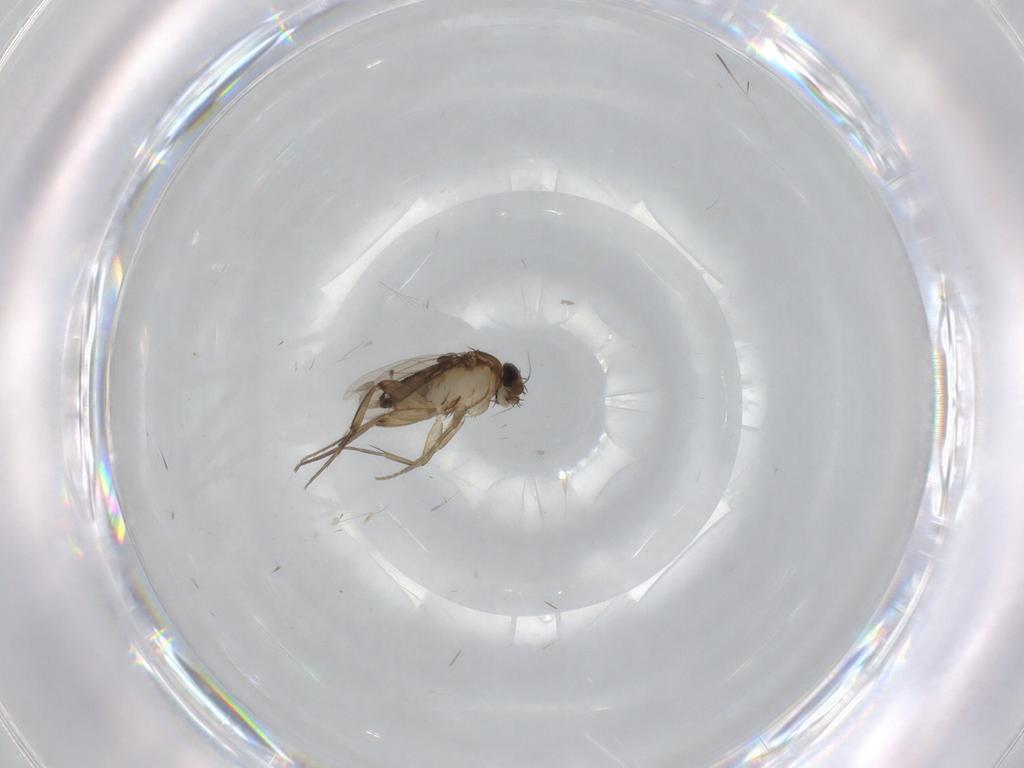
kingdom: Animalia
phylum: Arthropoda
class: Insecta
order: Diptera
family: Phoridae
